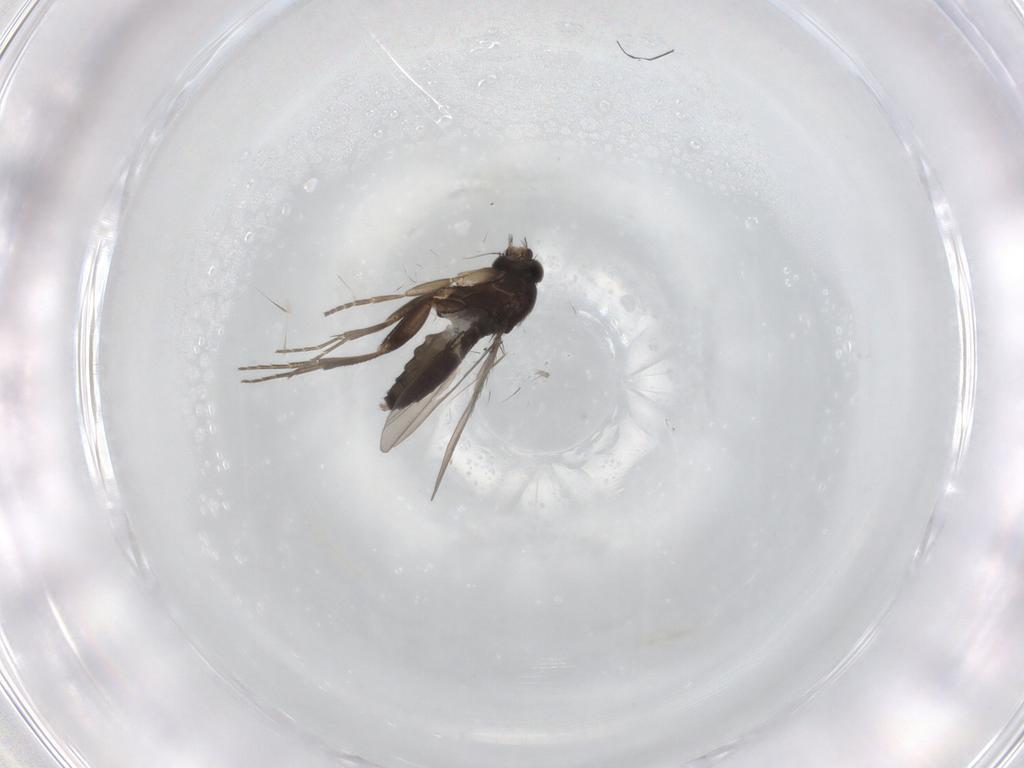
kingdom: Animalia
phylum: Arthropoda
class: Insecta
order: Diptera
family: Phoridae
